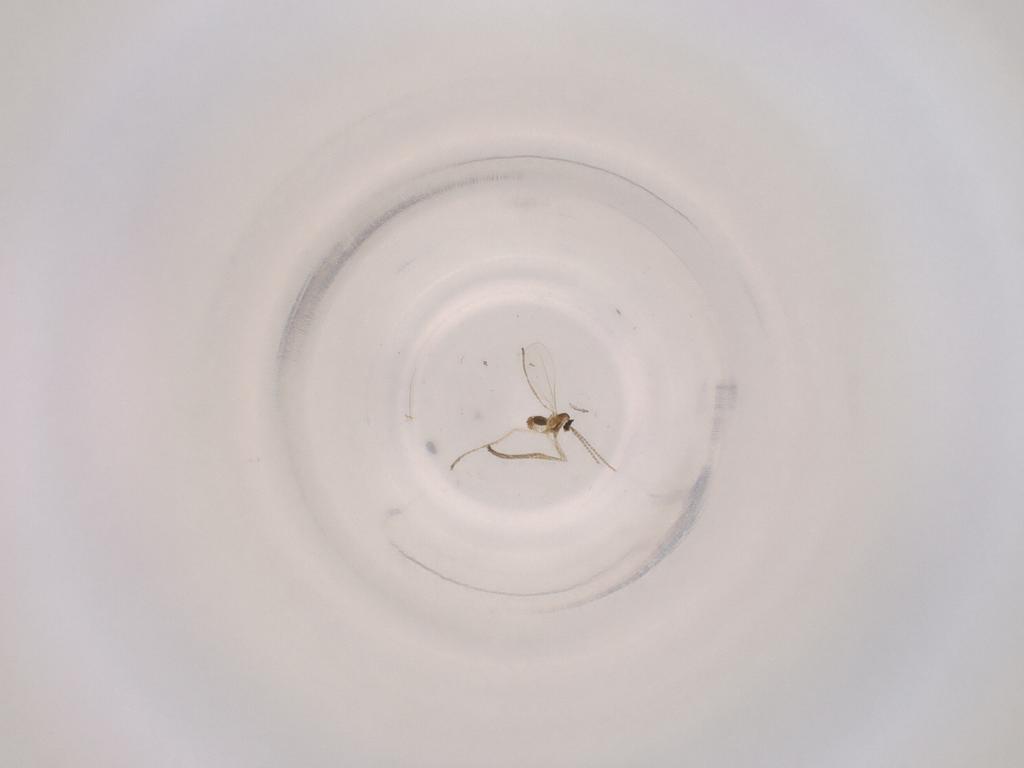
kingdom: Animalia
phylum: Arthropoda
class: Insecta
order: Diptera
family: Cecidomyiidae
